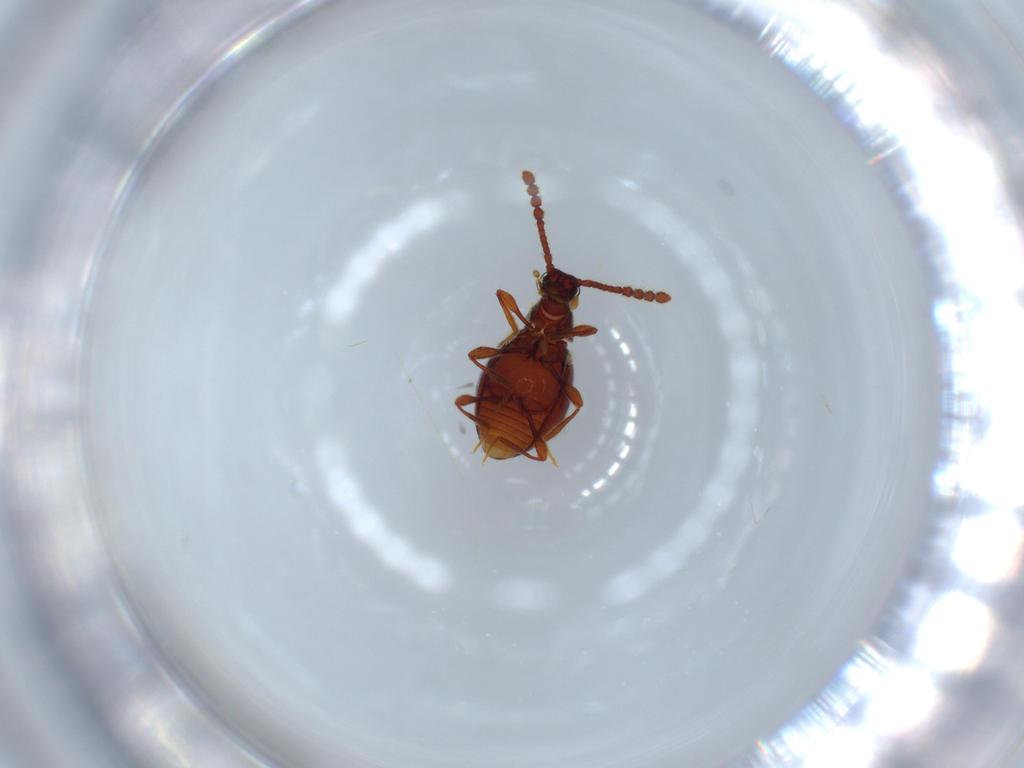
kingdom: Animalia
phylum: Arthropoda
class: Insecta
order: Coleoptera
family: Staphylinidae
